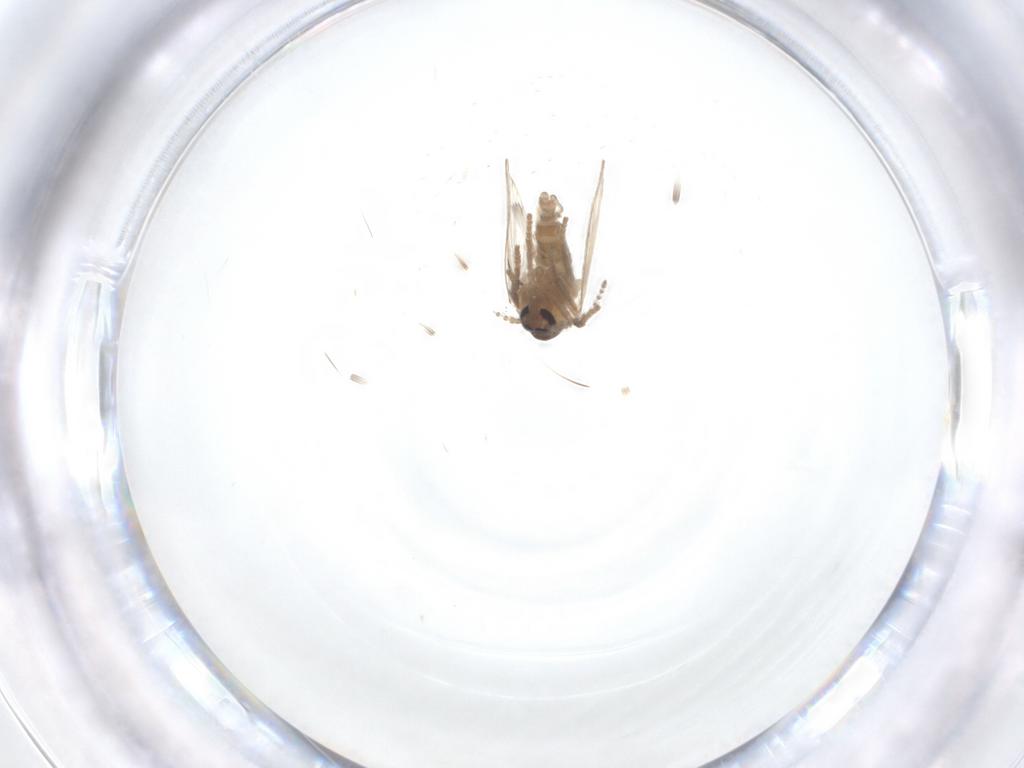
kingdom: Animalia
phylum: Arthropoda
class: Insecta
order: Diptera
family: Psychodidae
